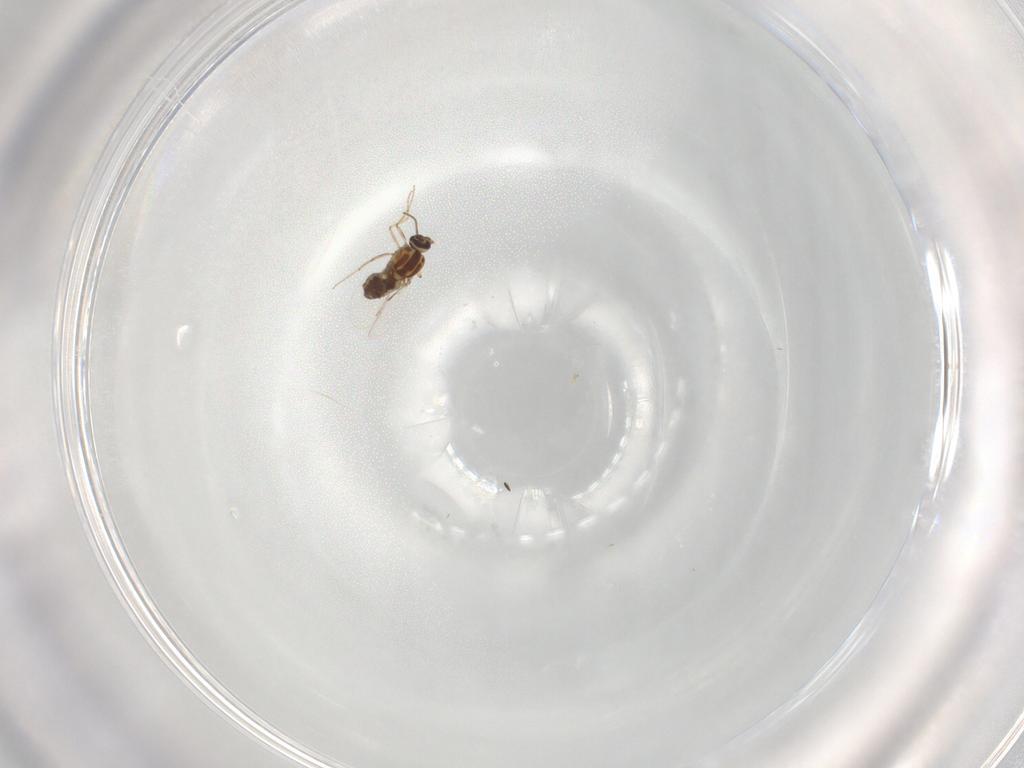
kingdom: Animalia
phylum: Arthropoda
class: Insecta
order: Diptera
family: Ceratopogonidae
